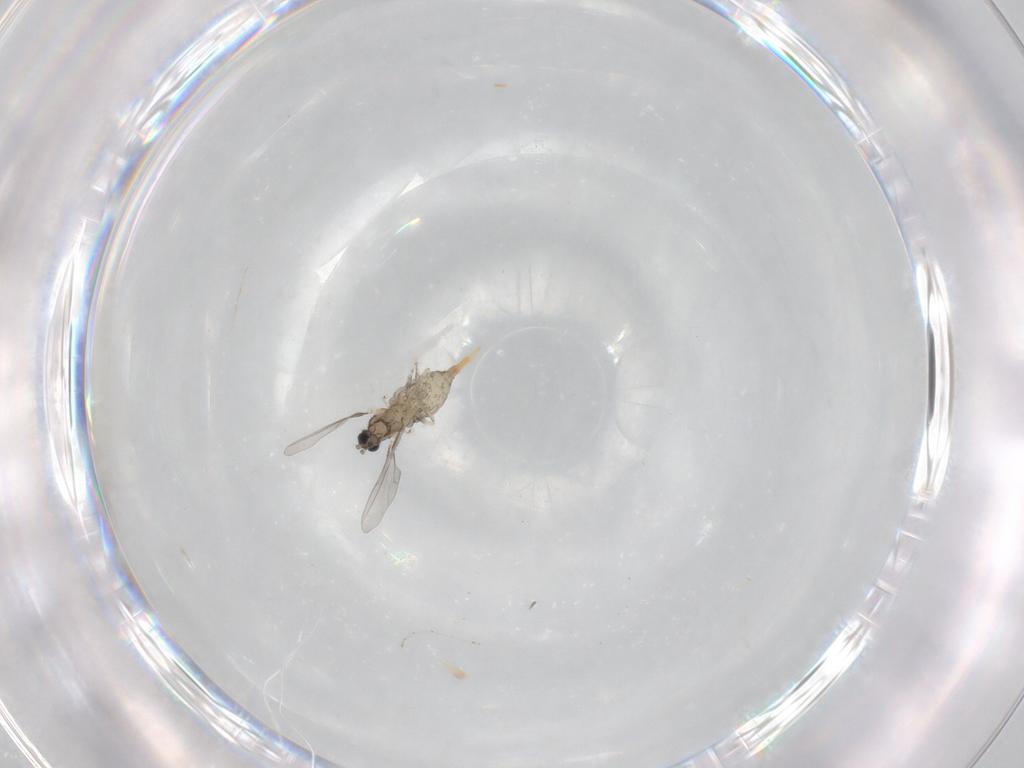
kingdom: Animalia
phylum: Arthropoda
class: Insecta
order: Diptera
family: Cecidomyiidae
